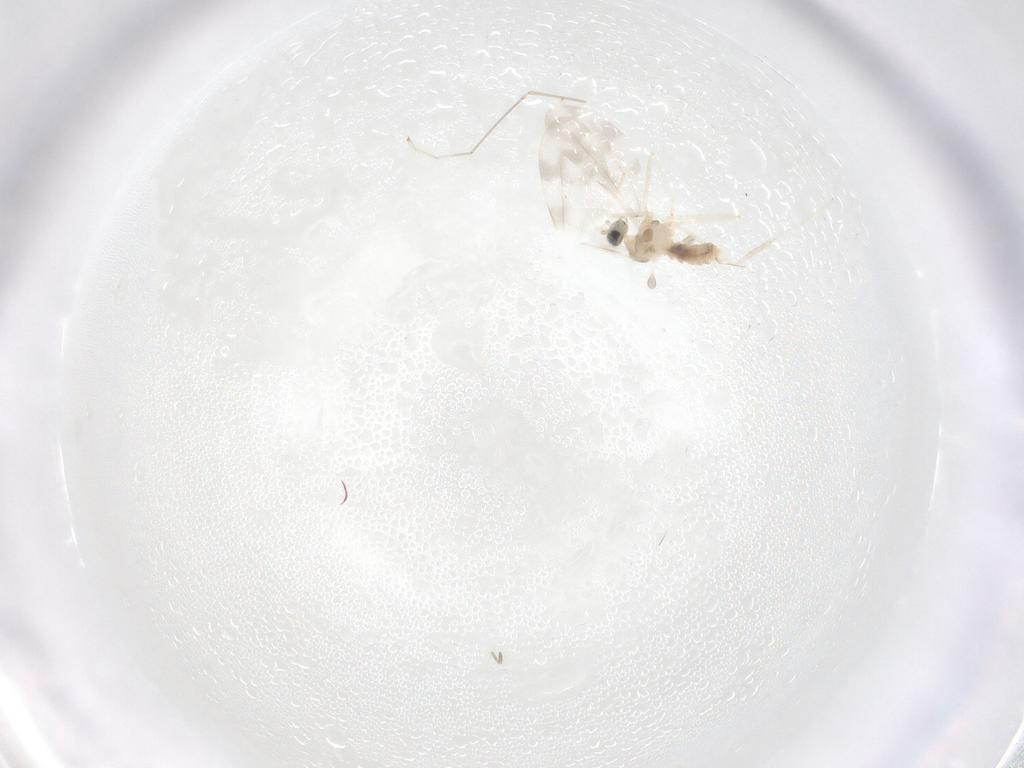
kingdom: Animalia
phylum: Arthropoda
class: Insecta
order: Diptera
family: Cecidomyiidae
